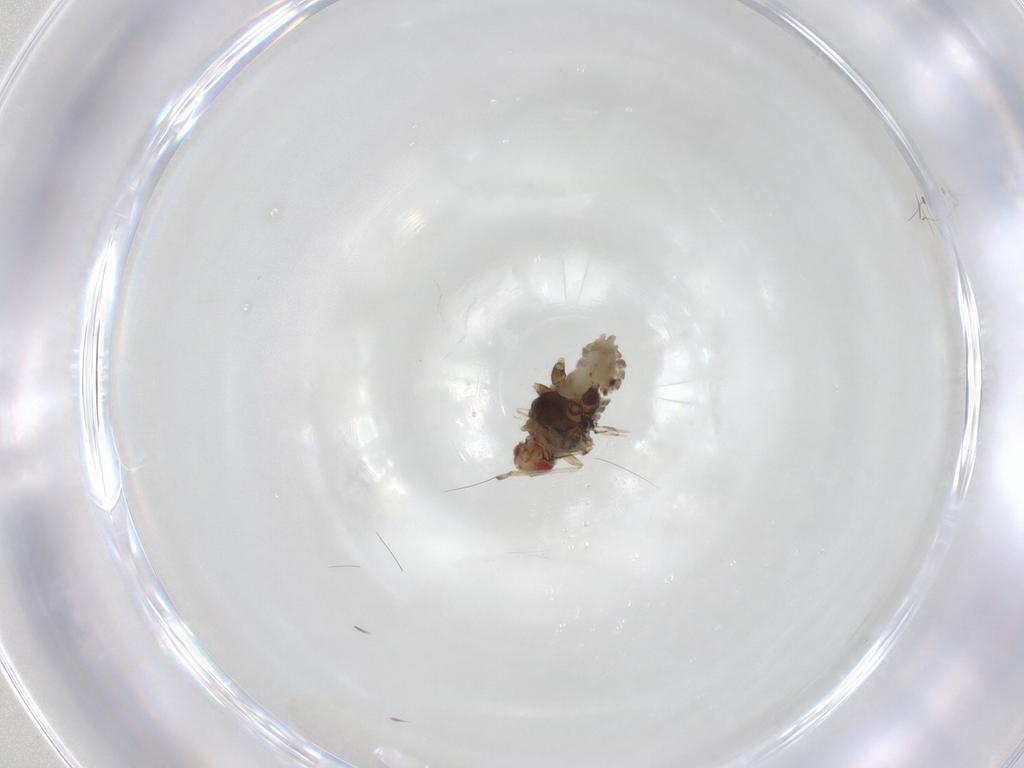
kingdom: Animalia
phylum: Arthropoda
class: Insecta
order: Hemiptera
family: Aphididae
